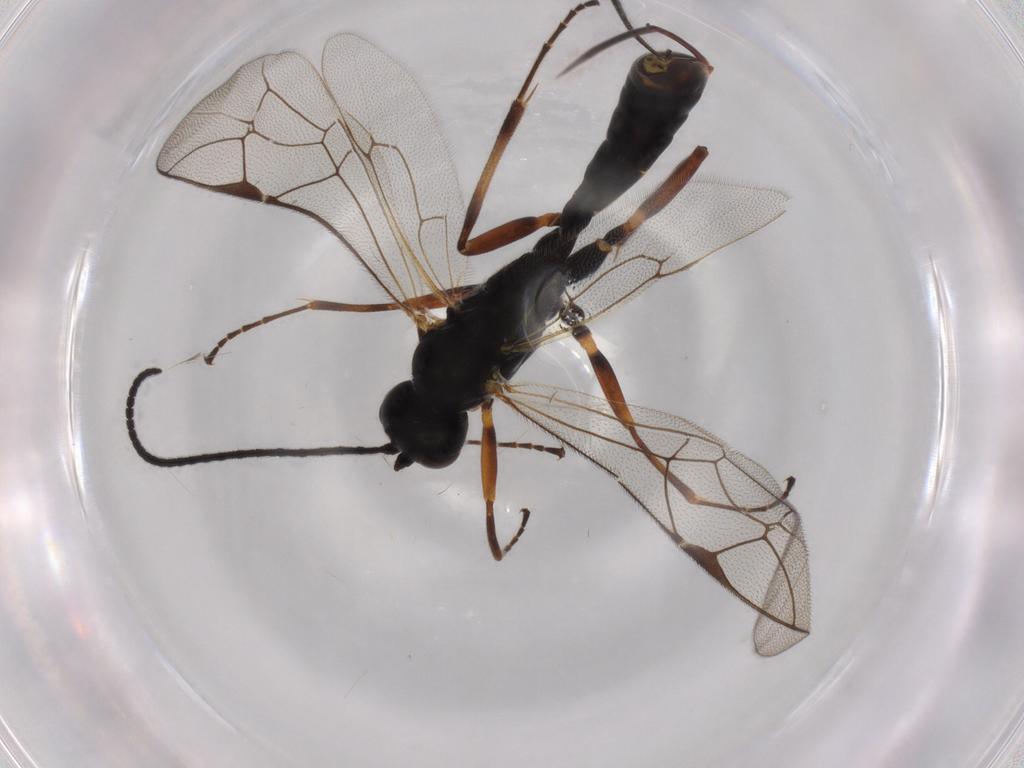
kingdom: Animalia
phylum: Arthropoda
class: Insecta
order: Hymenoptera
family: Ichneumonidae
